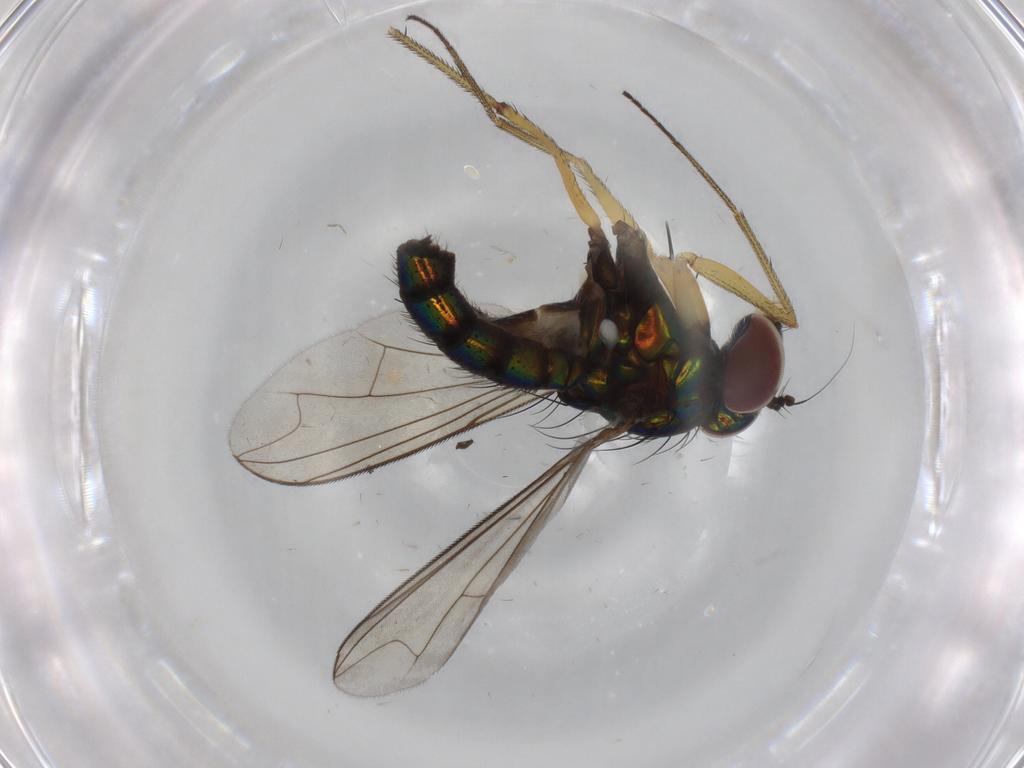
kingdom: Animalia
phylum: Arthropoda
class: Insecta
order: Diptera
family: Dolichopodidae
